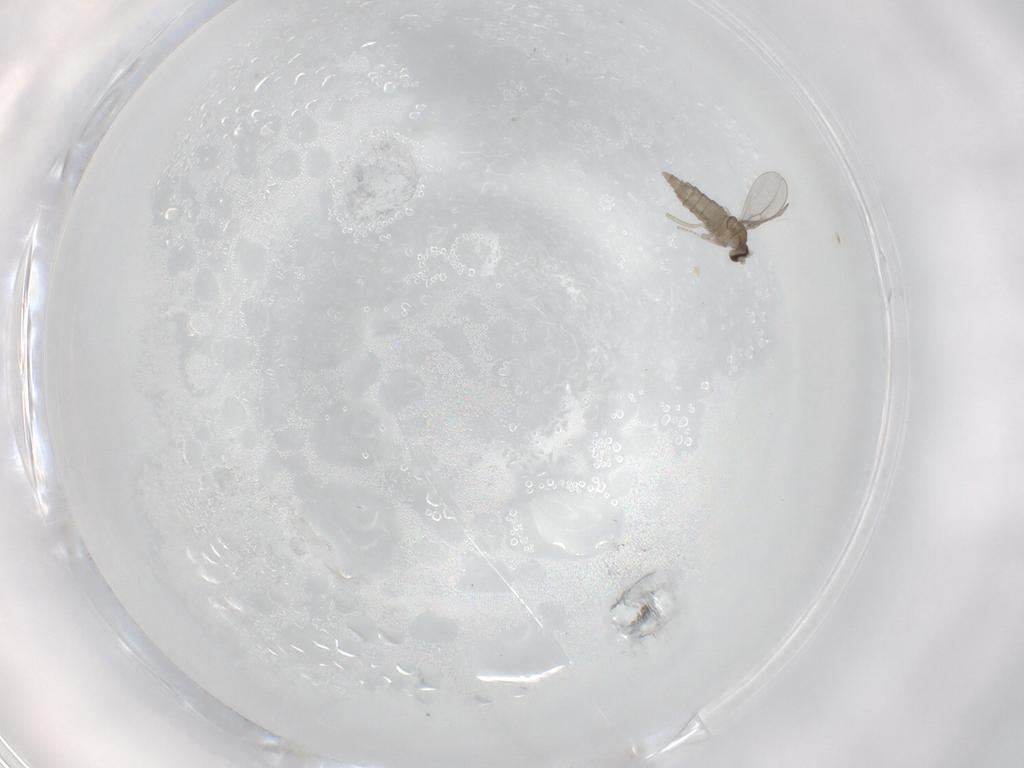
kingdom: Animalia
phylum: Arthropoda
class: Insecta
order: Diptera
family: Cecidomyiidae
